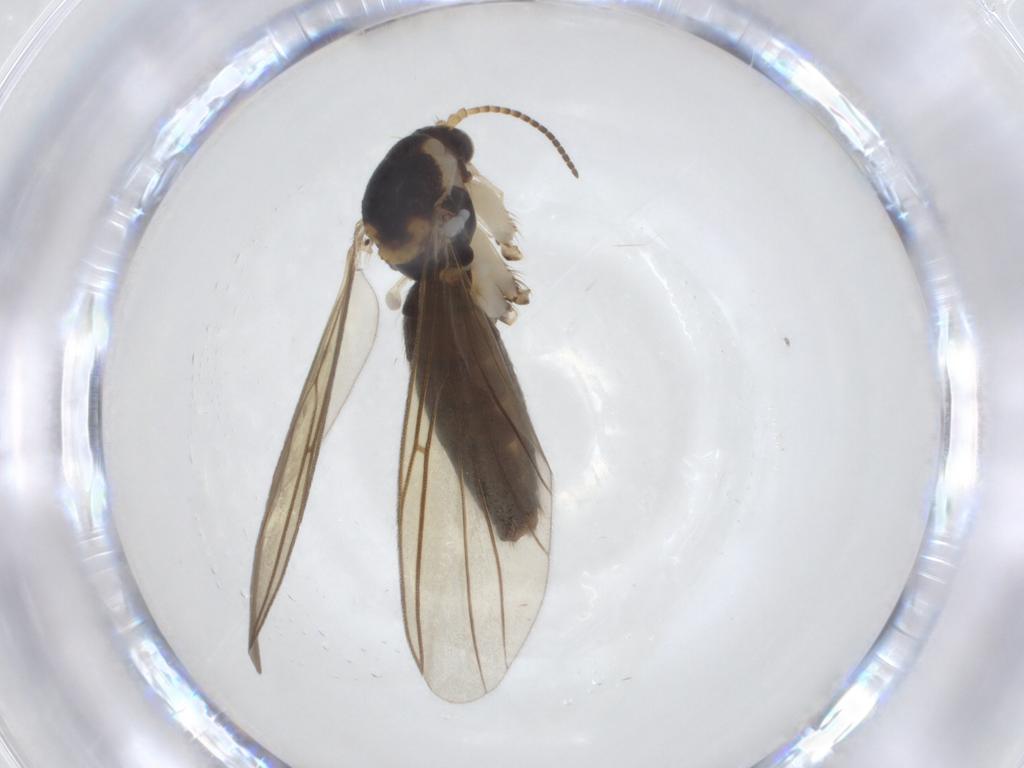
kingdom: Animalia
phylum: Arthropoda
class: Insecta
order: Diptera
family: Mycetophilidae
